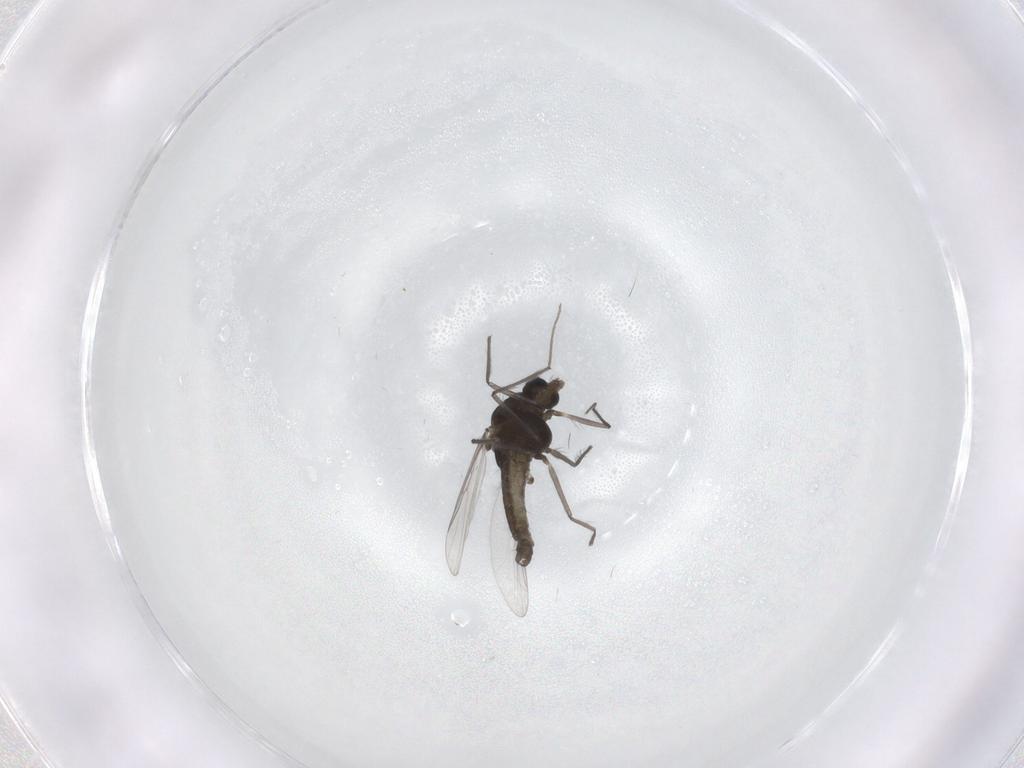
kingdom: Animalia
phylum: Arthropoda
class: Insecta
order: Diptera
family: Chironomidae
